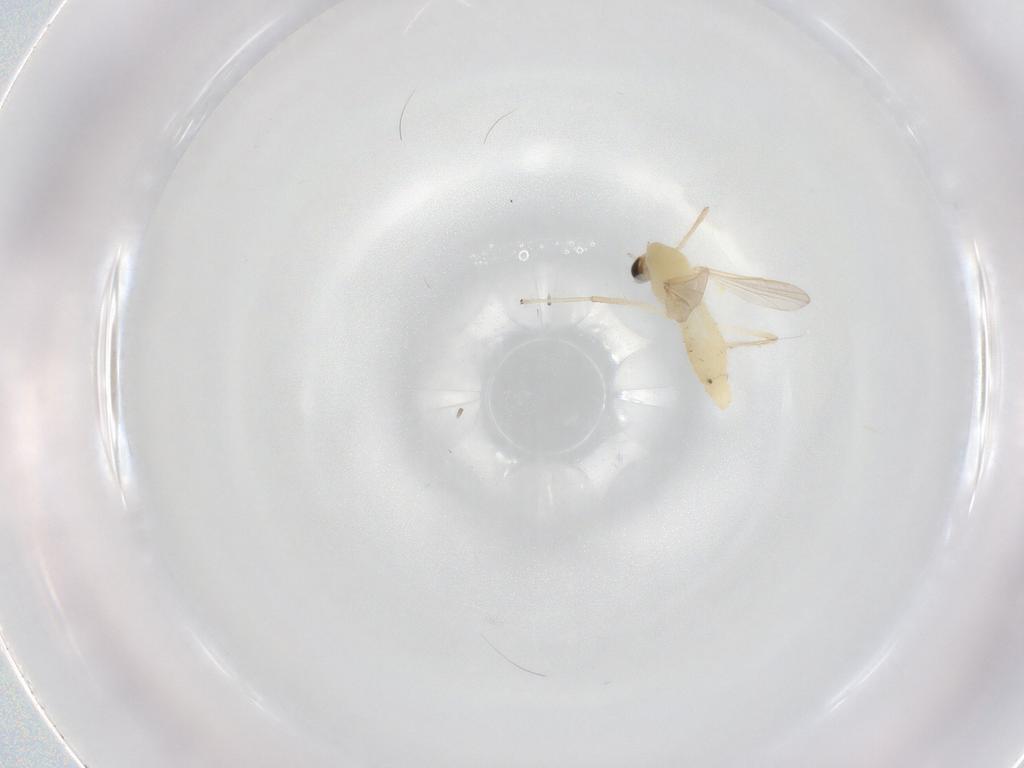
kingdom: Animalia
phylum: Arthropoda
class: Insecta
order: Diptera
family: Chironomidae
